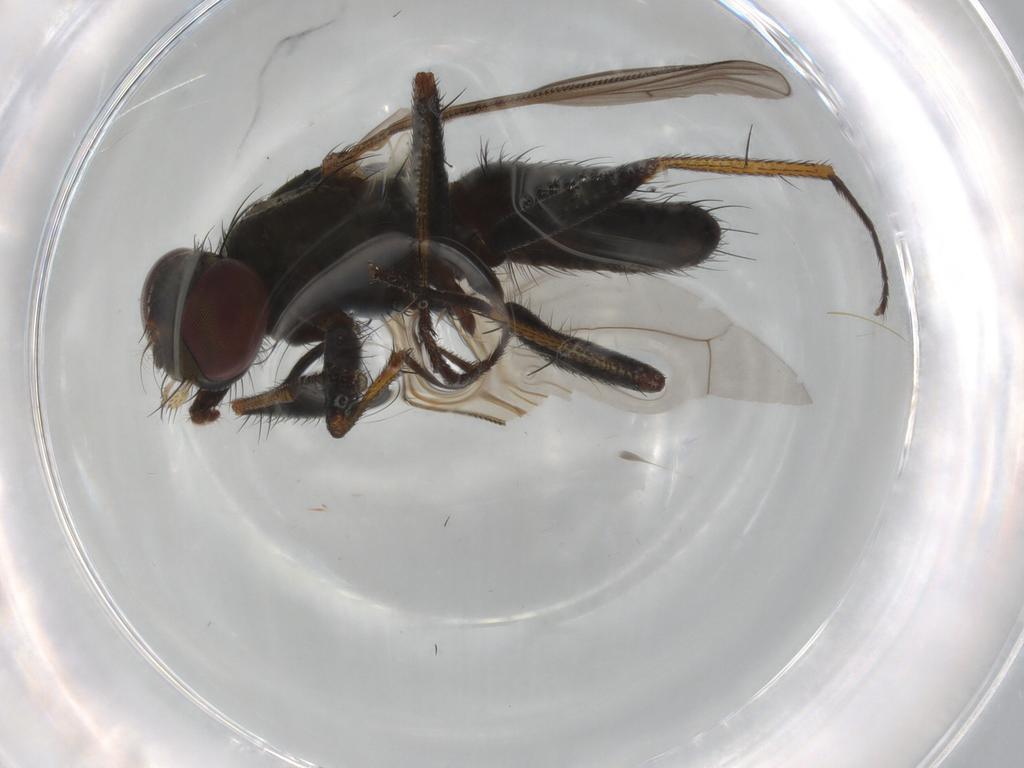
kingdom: Animalia
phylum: Arthropoda
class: Insecta
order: Diptera
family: Muscidae
